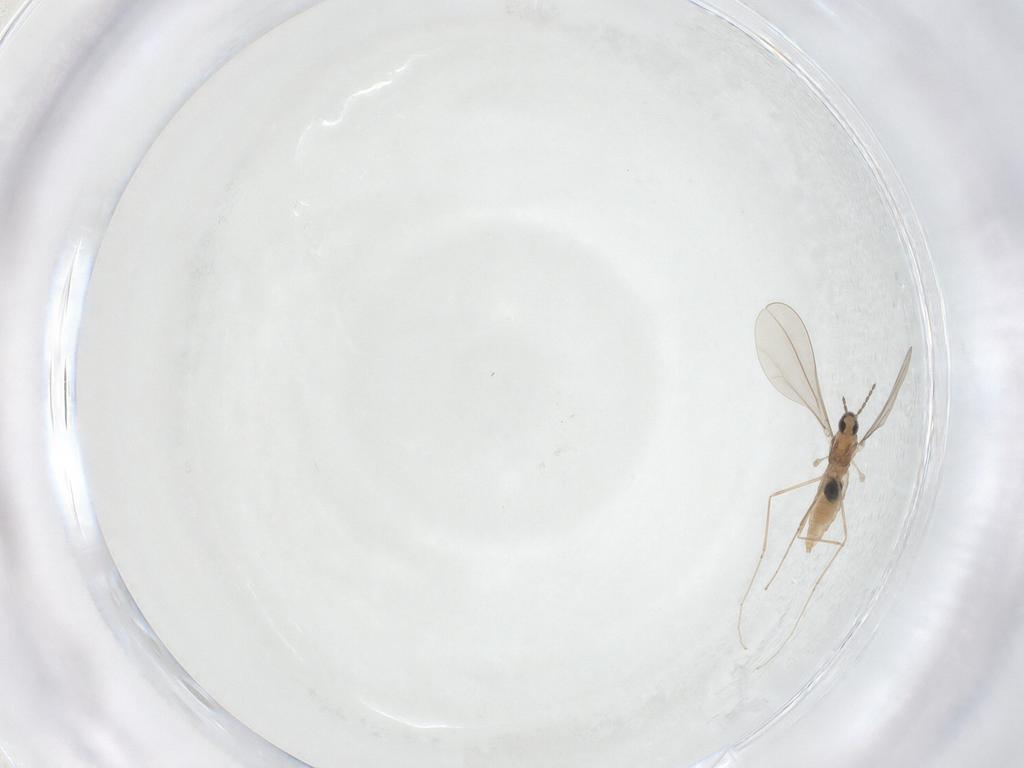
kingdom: Animalia
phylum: Arthropoda
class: Insecta
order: Diptera
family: Cecidomyiidae
